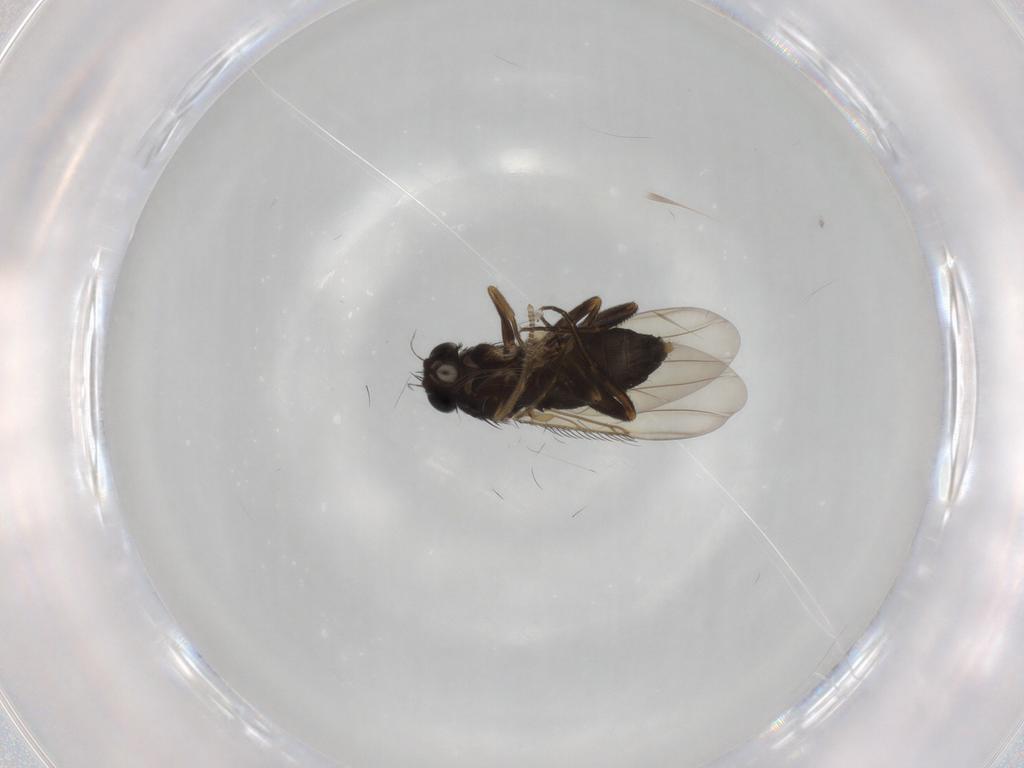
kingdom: Animalia
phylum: Arthropoda
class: Insecta
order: Diptera
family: Phoridae
